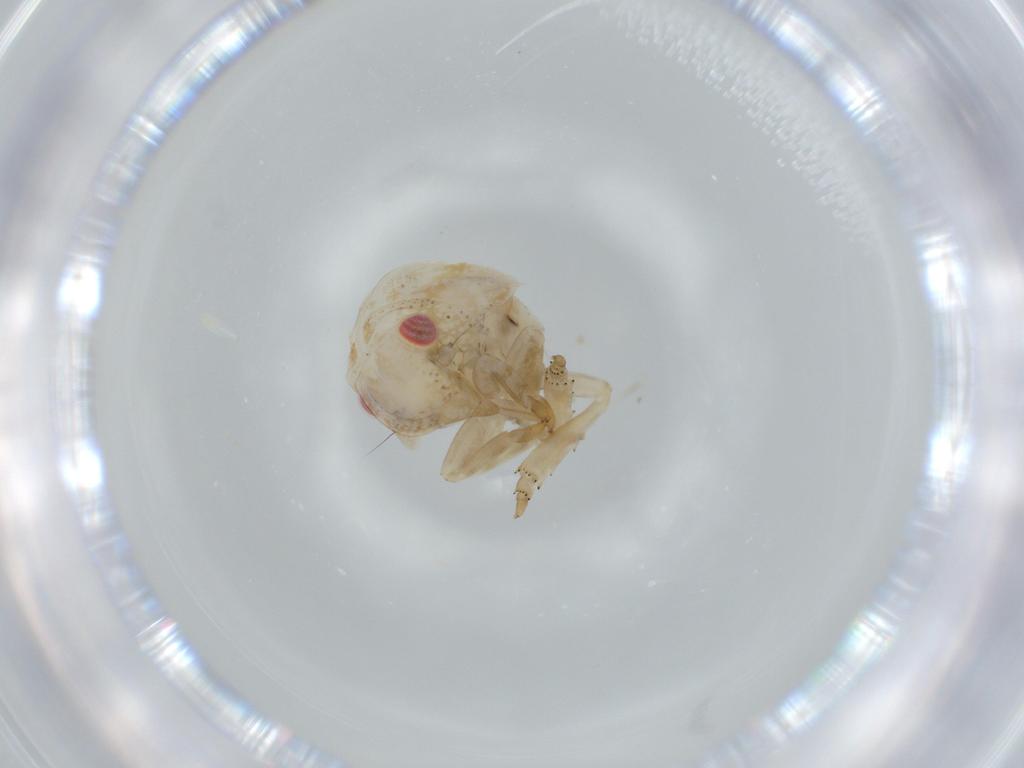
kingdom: Animalia
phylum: Arthropoda
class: Insecta
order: Hemiptera
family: Acanaloniidae
